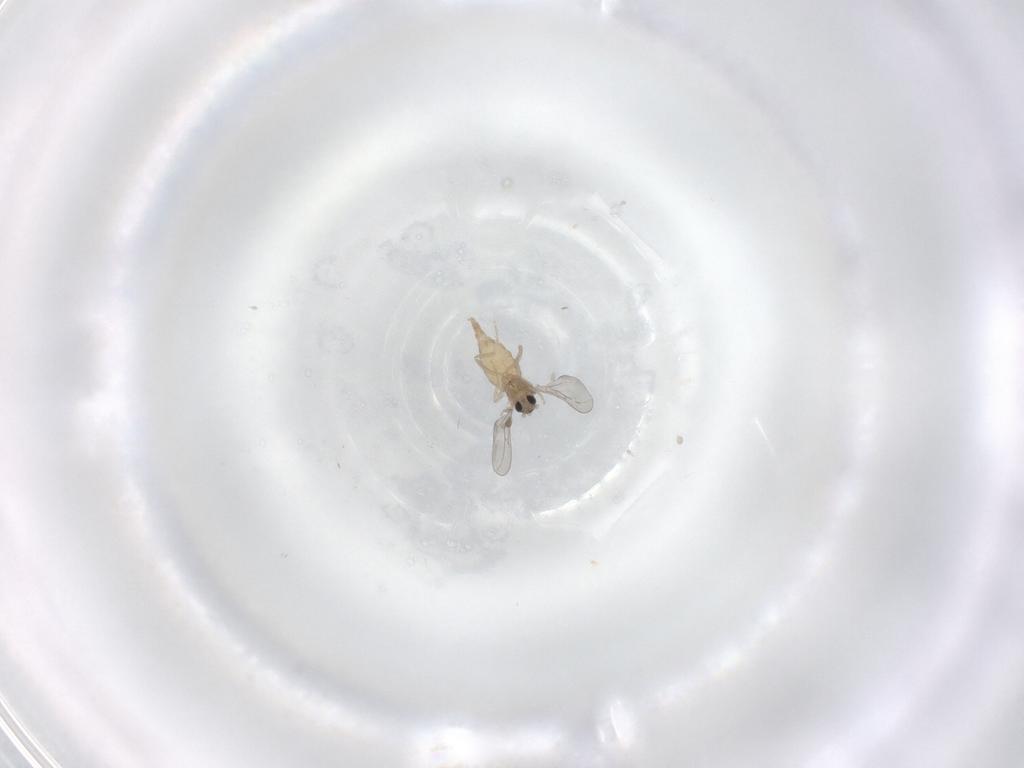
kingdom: Animalia
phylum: Arthropoda
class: Insecta
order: Diptera
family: Cecidomyiidae
